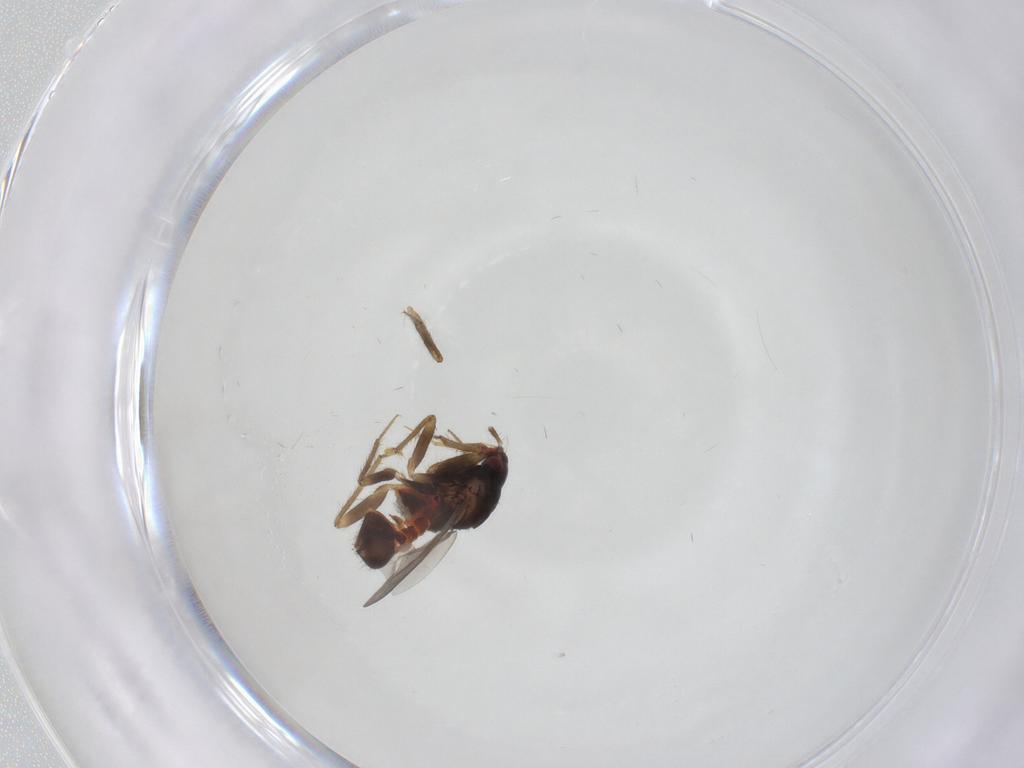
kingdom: Animalia
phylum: Arthropoda
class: Insecta
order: Hemiptera
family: Ceratocombidae
